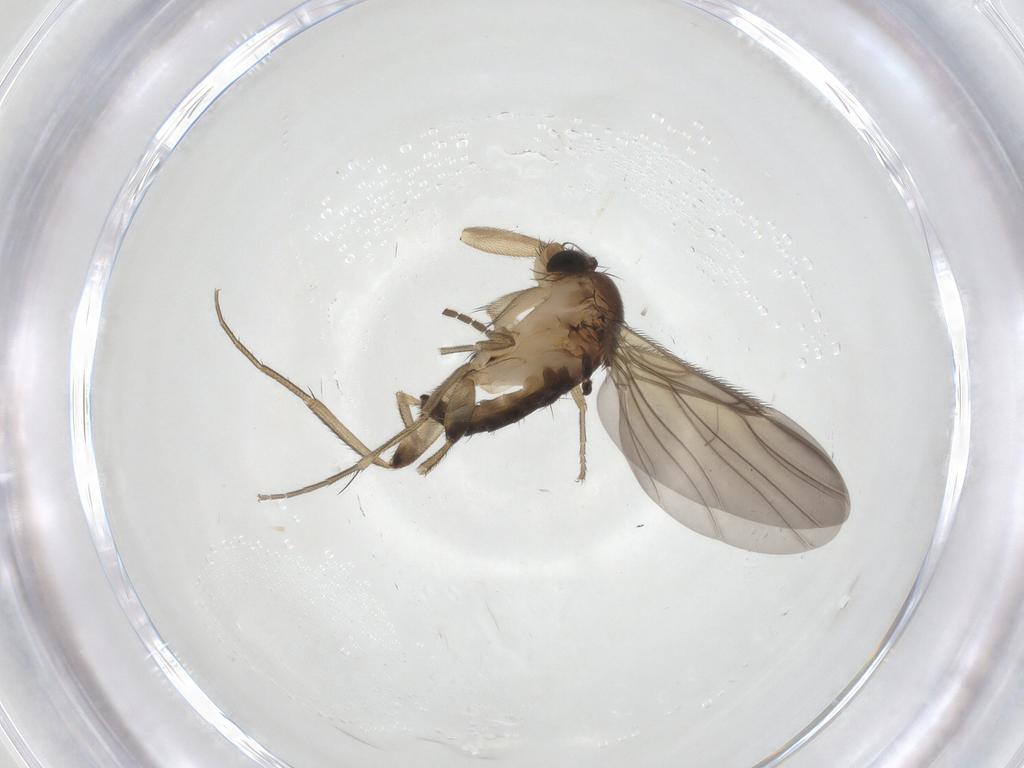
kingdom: Animalia
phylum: Arthropoda
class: Insecta
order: Diptera
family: Phoridae
